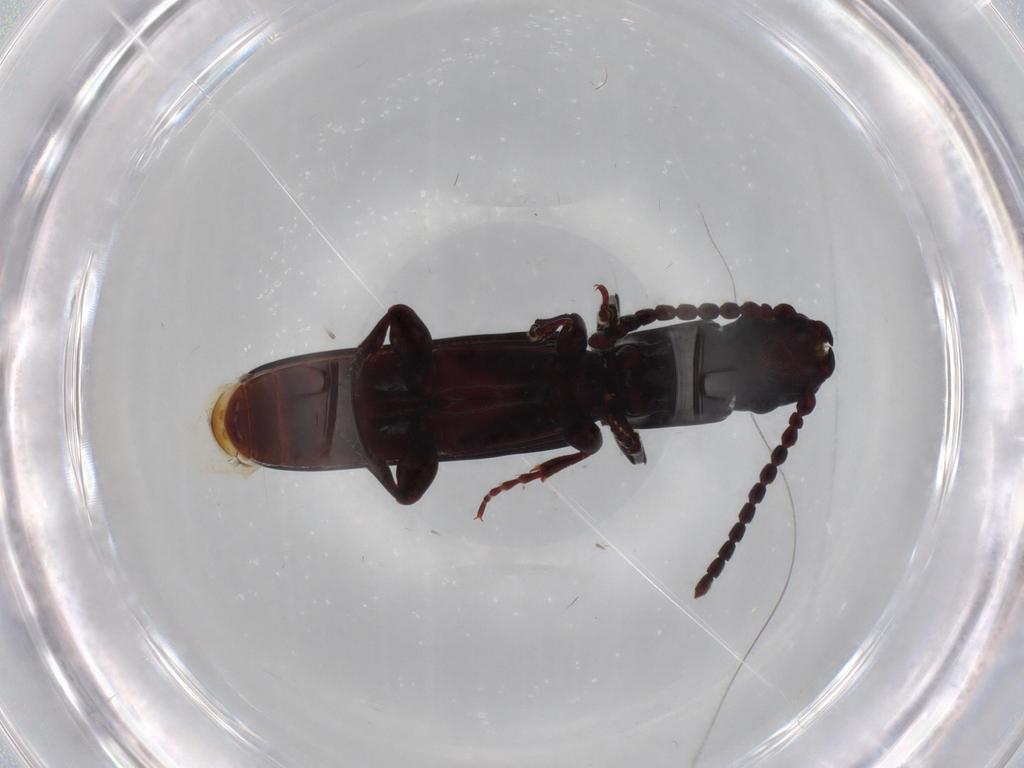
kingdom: Animalia
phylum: Arthropoda
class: Insecta
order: Coleoptera
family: Passandridae
